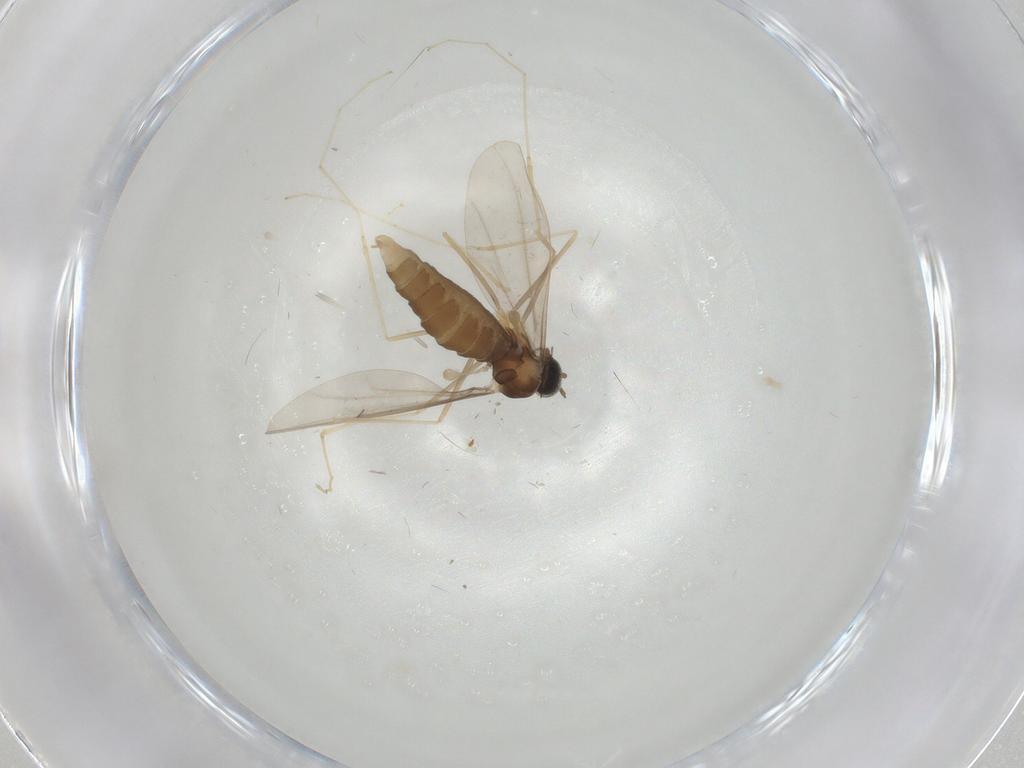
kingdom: Animalia
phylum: Arthropoda
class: Insecta
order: Diptera
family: Cecidomyiidae
